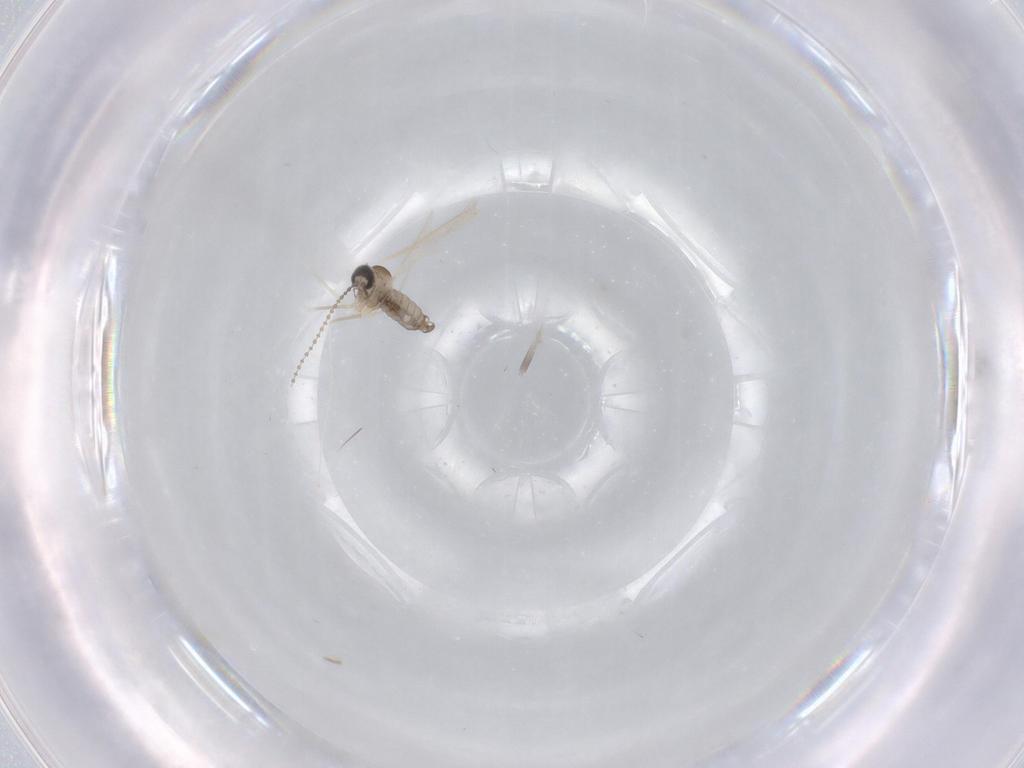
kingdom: Animalia
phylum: Arthropoda
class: Insecta
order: Diptera
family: Cecidomyiidae
